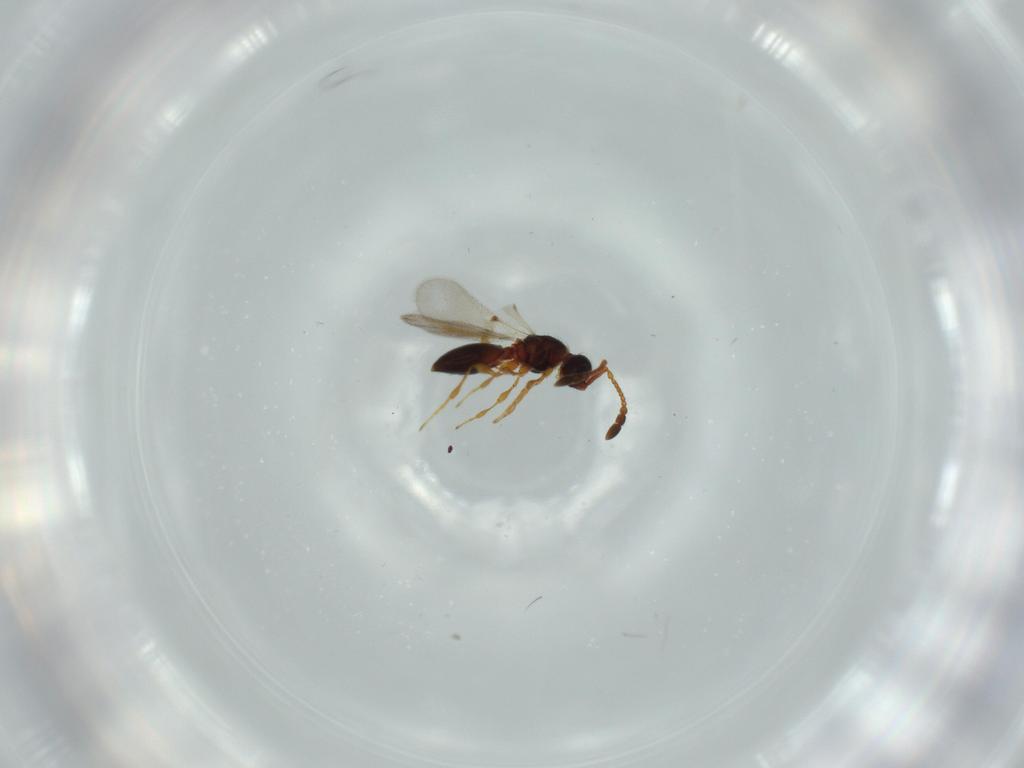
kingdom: Animalia
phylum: Arthropoda
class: Insecta
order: Hymenoptera
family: Diapriidae
